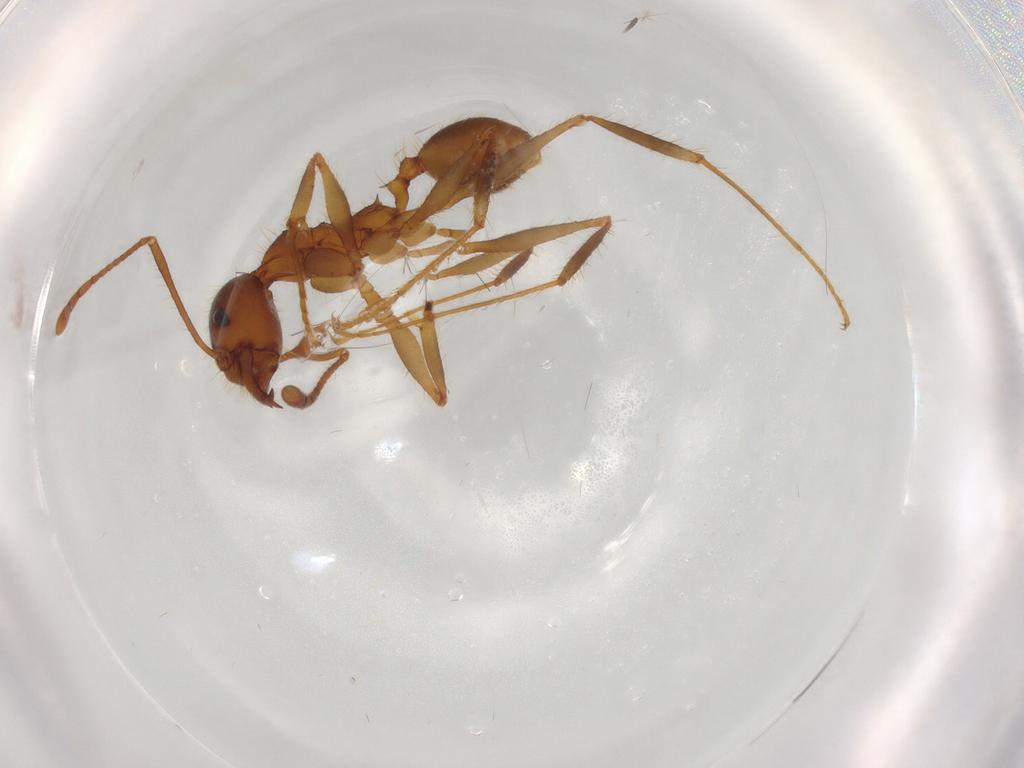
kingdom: Animalia
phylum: Arthropoda
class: Insecta
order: Hymenoptera
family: Formicidae
